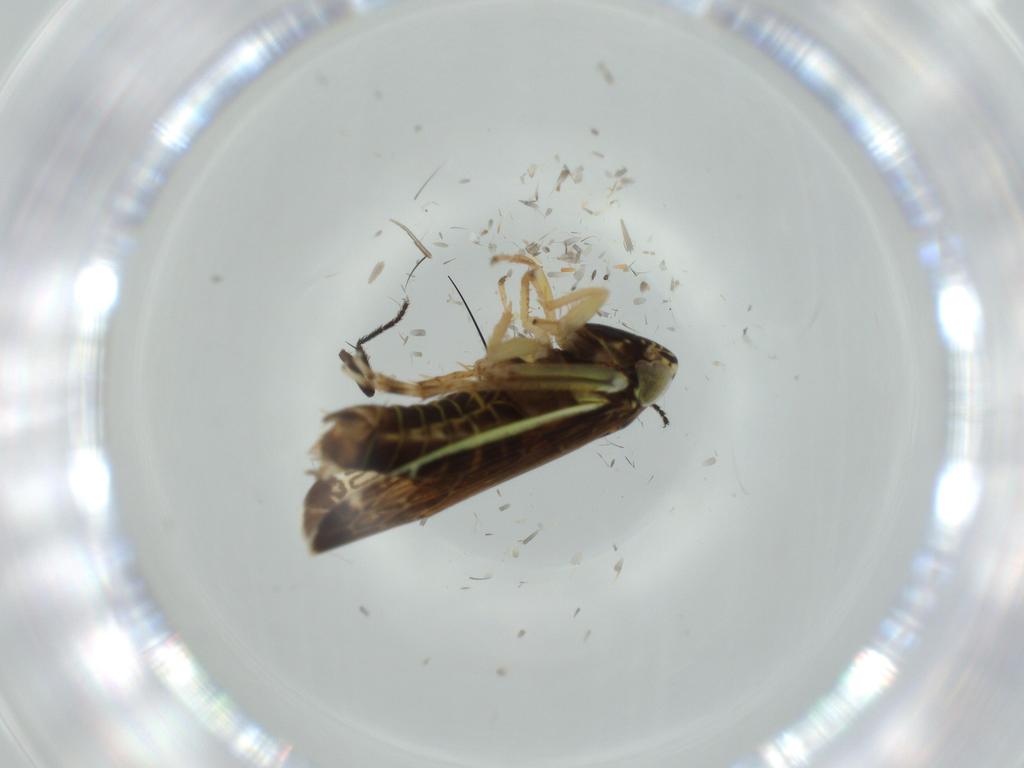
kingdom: Animalia
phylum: Arthropoda
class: Insecta
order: Hemiptera
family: Cicadellidae
